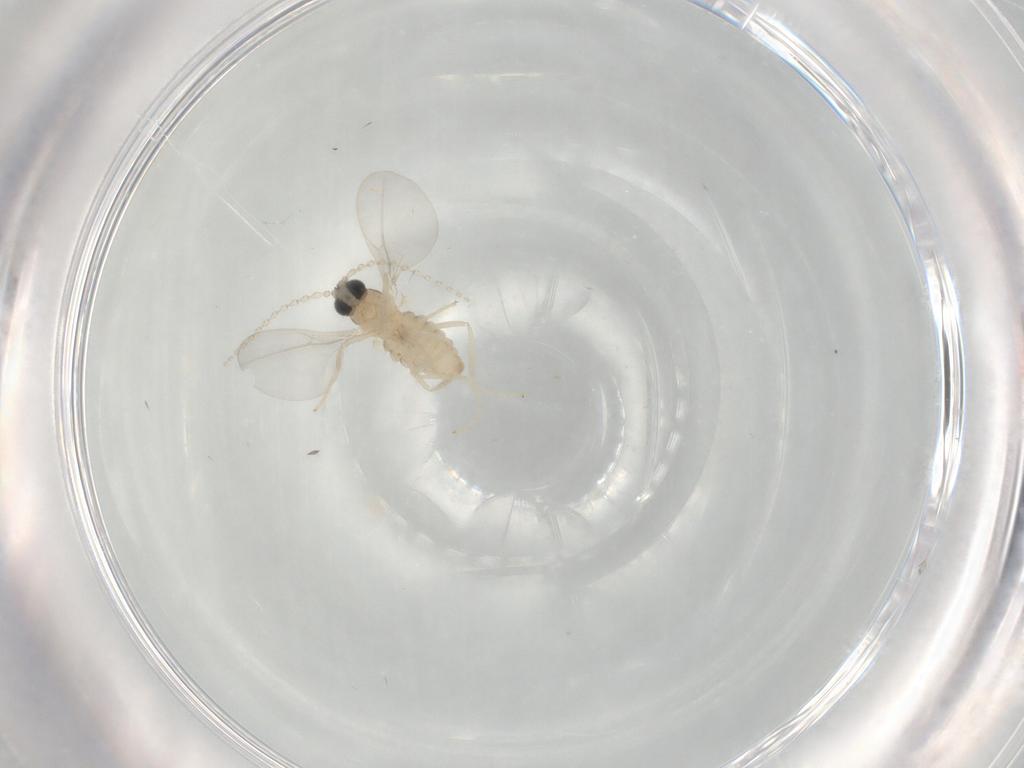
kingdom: Animalia
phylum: Arthropoda
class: Insecta
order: Diptera
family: Cecidomyiidae
